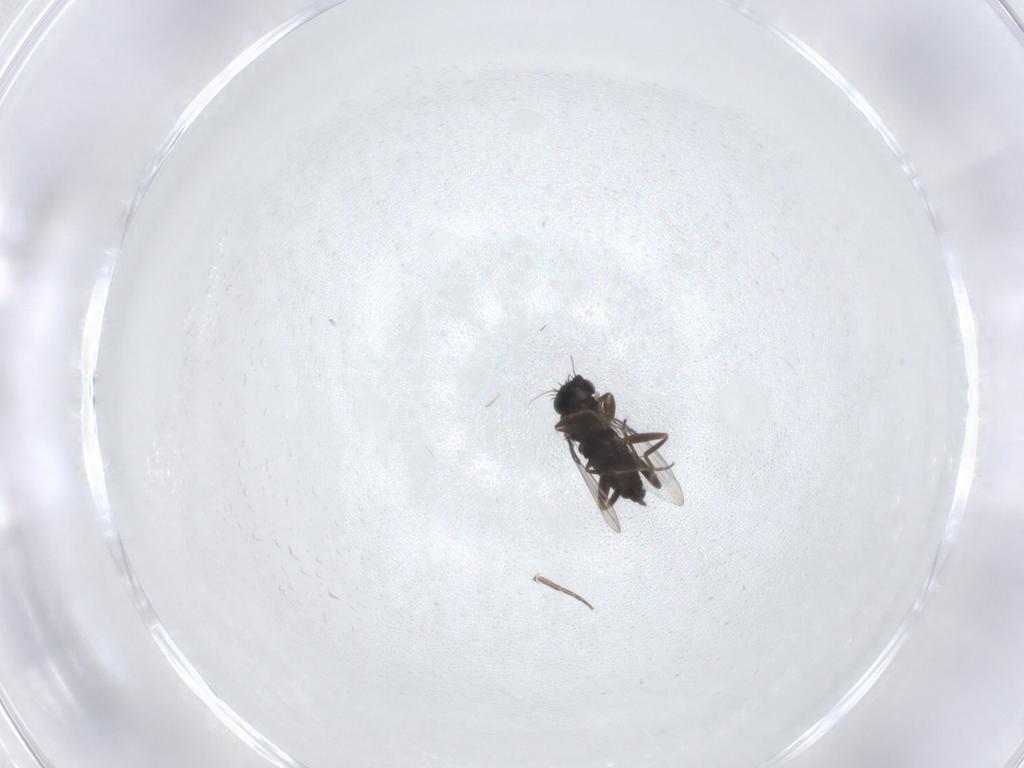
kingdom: Animalia
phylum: Arthropoda
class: Insecta
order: Diptera
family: Phoridae
